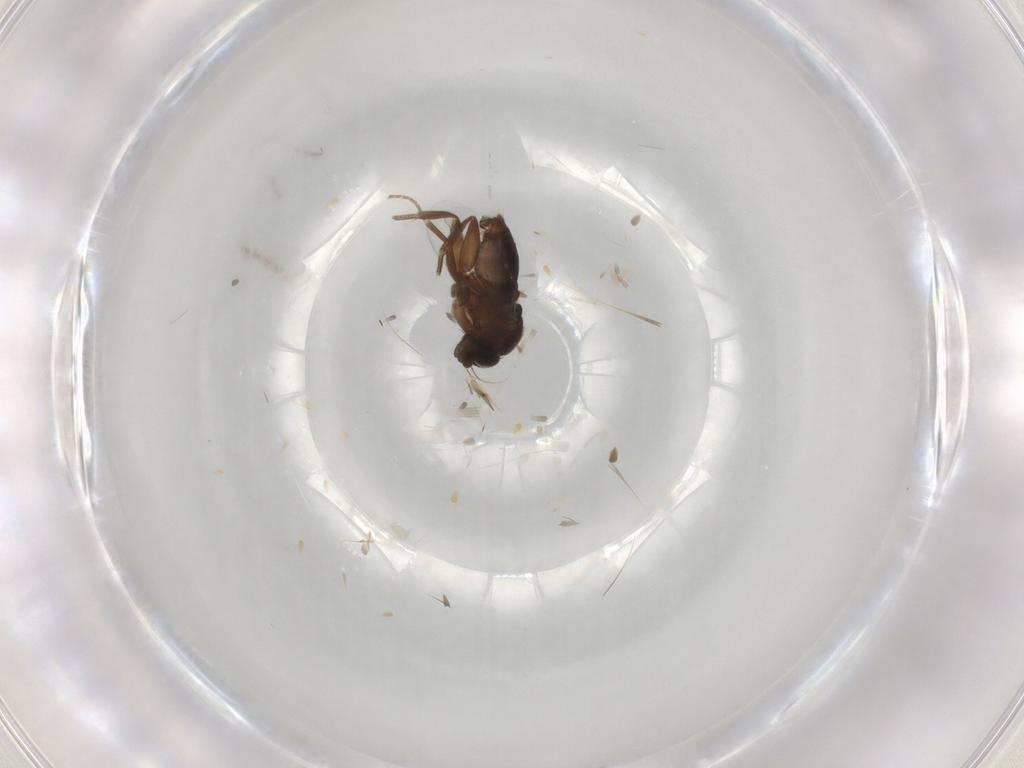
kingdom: Animalia
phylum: Arthropoda
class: Insecta
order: Diptera
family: Phoridae
